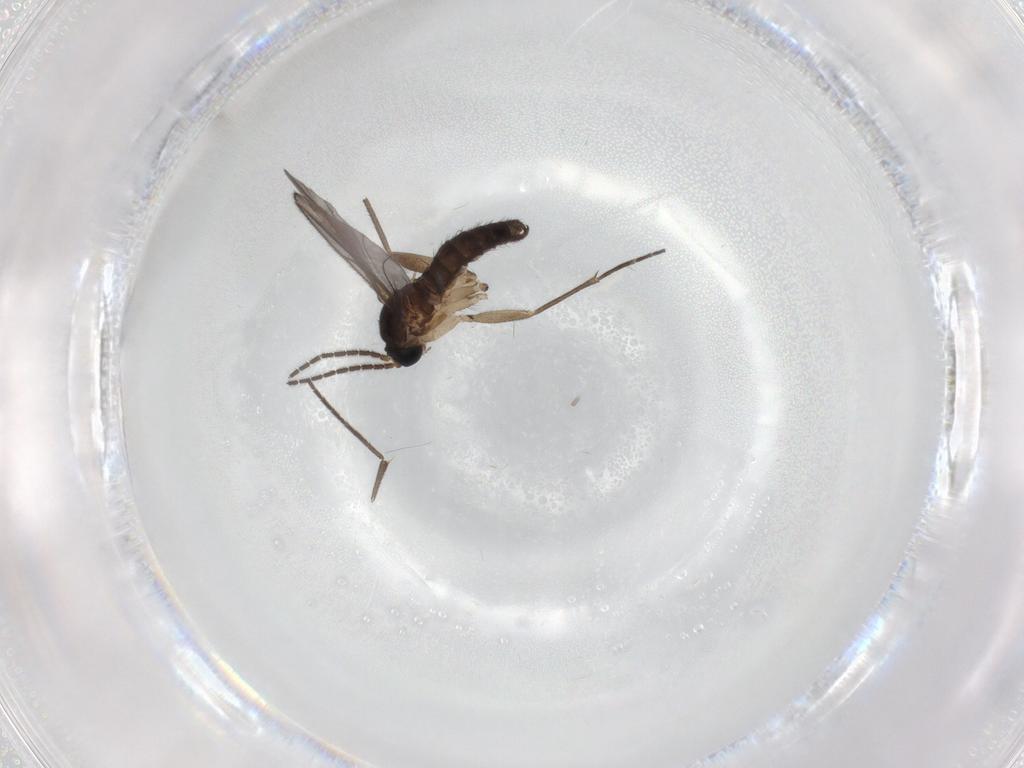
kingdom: Animalia
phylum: Arthropoda
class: Insecta
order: Diptera
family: Sciaridae
